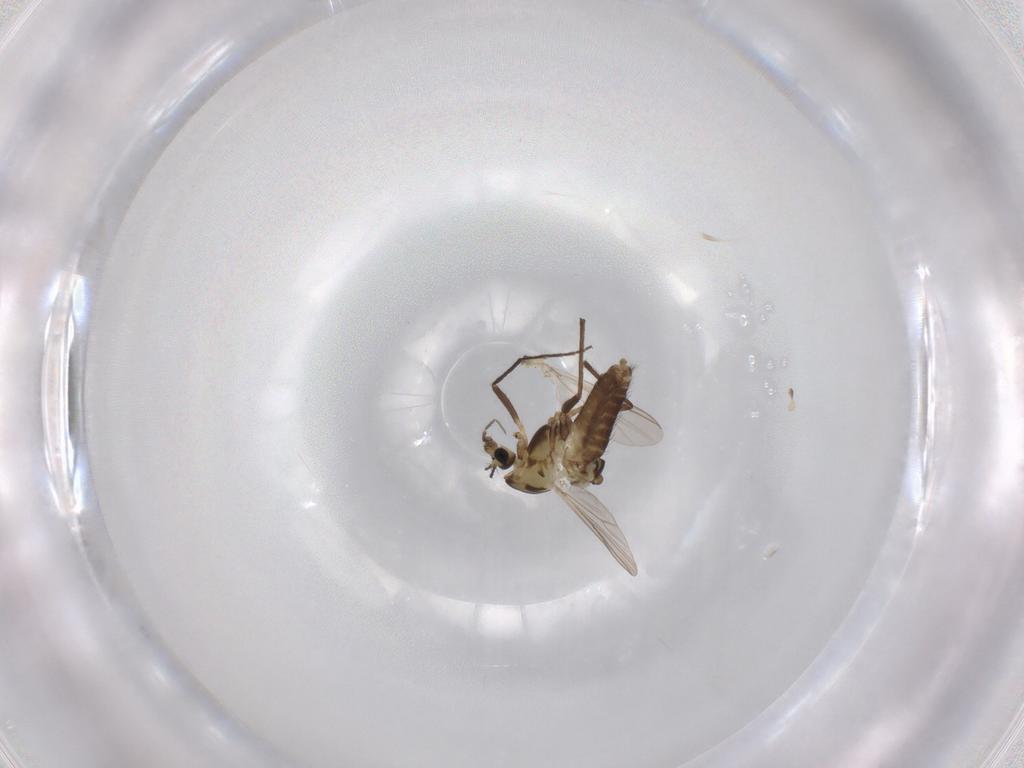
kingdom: Animalia
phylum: Arthropoda
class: Insecta
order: Diptera
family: Chironomidae
